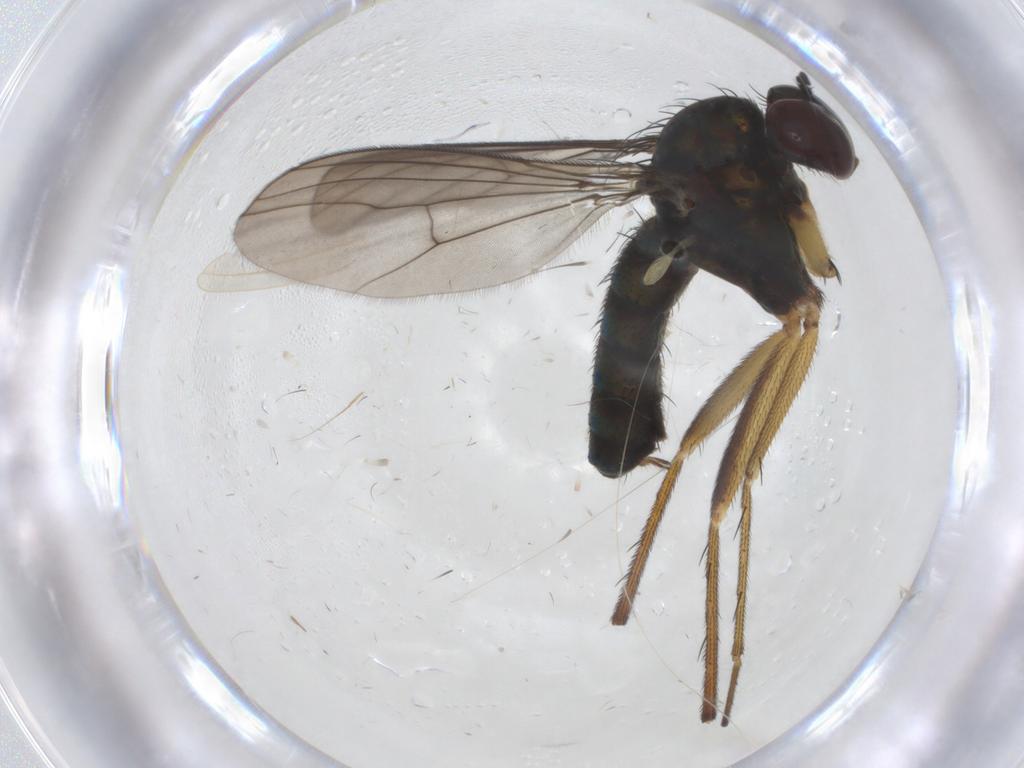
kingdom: Animalia
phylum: Arthropoda
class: Insecta
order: Diptera
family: Dolichopodidae
